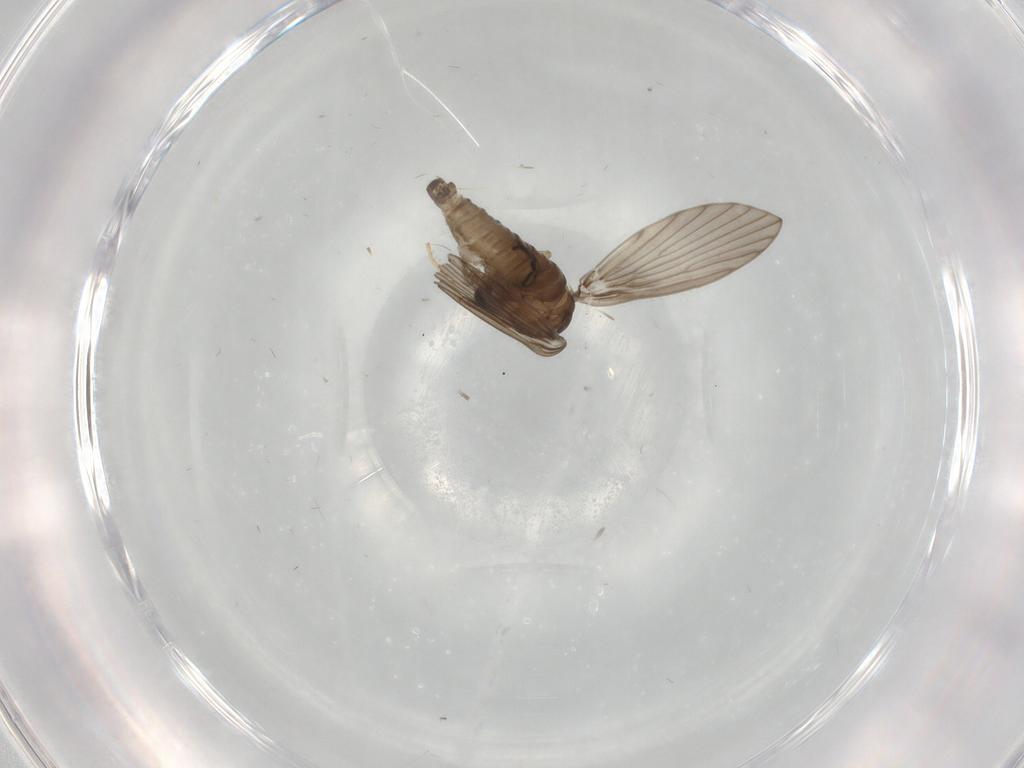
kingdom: Animalia
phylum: Arthropoda
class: Insecta
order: Diptera
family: Psychodidae
